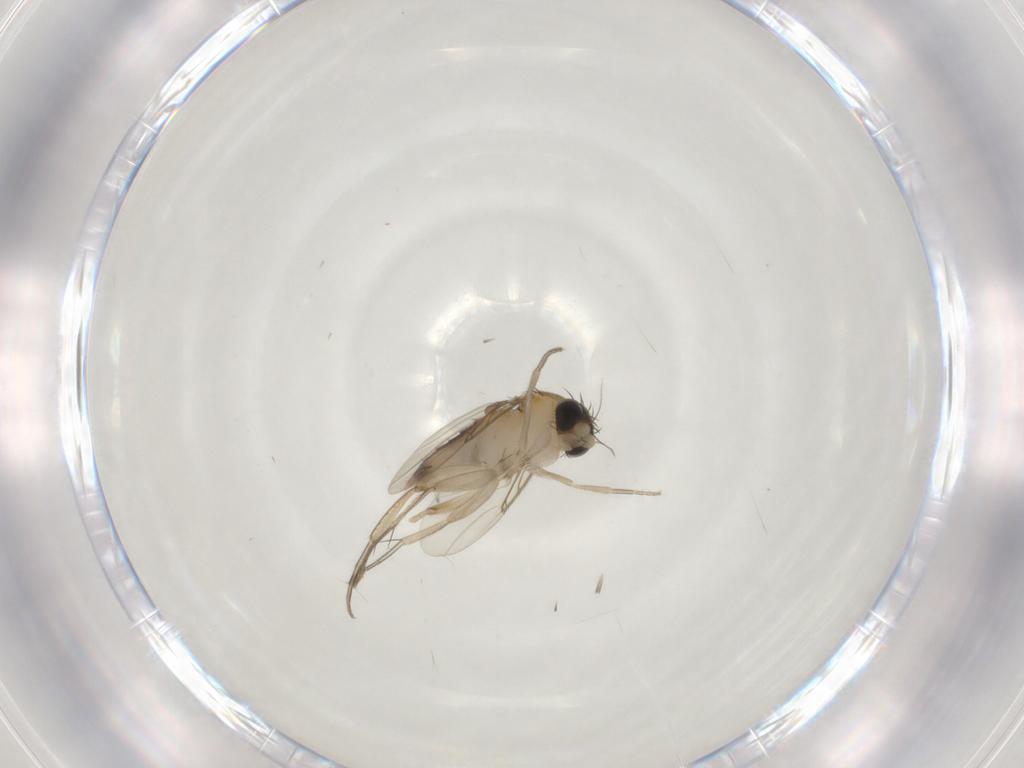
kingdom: Animalia
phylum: Arthropoda
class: Insecta
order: Diptera
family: Phoridae
